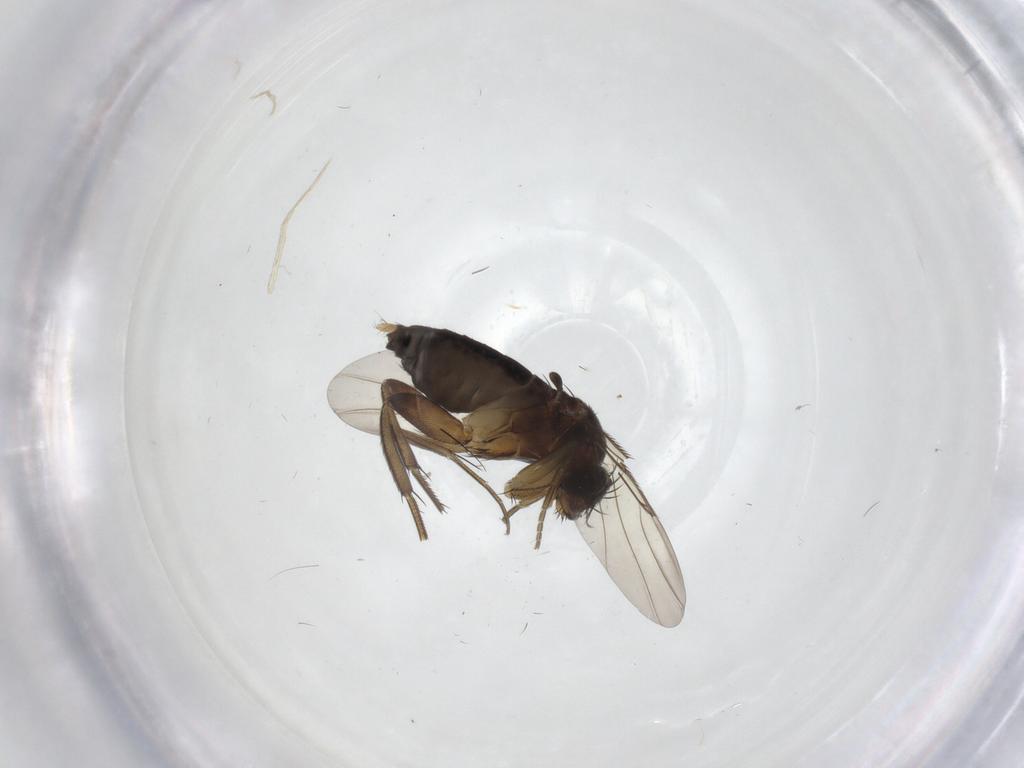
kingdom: Animalia
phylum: Arthropoda
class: Insecta
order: Diptera
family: Phoridae
